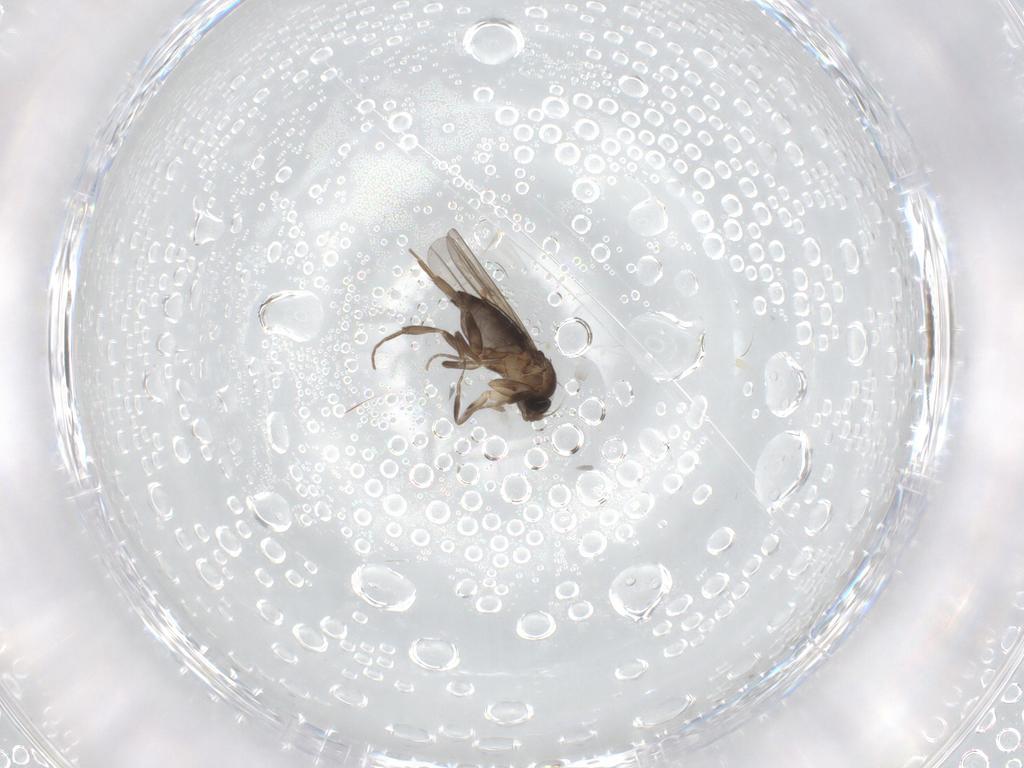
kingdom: Animalia
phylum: Arthropoda
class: Insecta
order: Diptera
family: Phoridae
